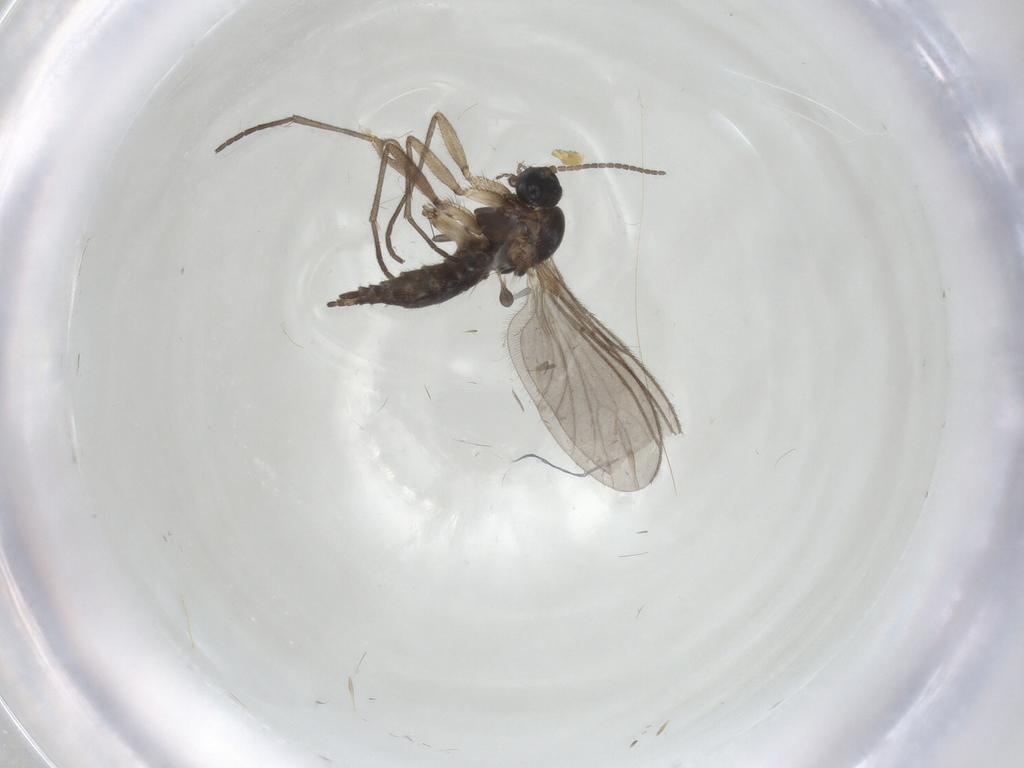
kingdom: Animalia
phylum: Arthropoda
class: Insecta
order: Diptera
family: Sciaridae
